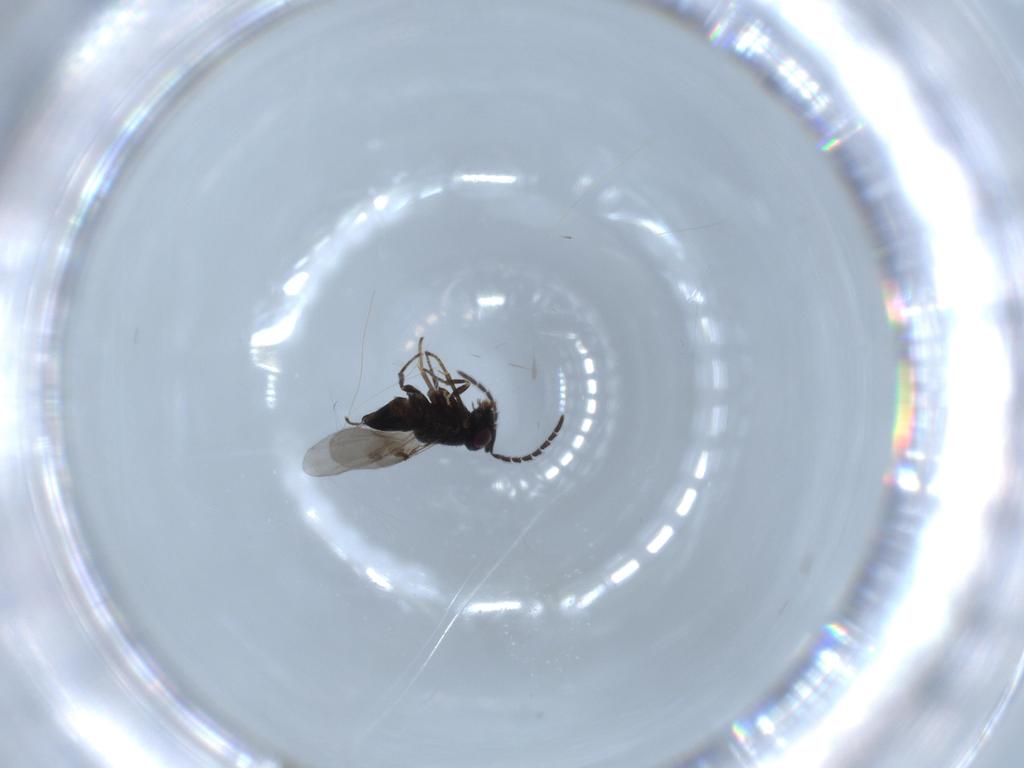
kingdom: Animalia
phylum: Arthropoda
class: Insecta
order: Hymenoptera
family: Encyrtidae
